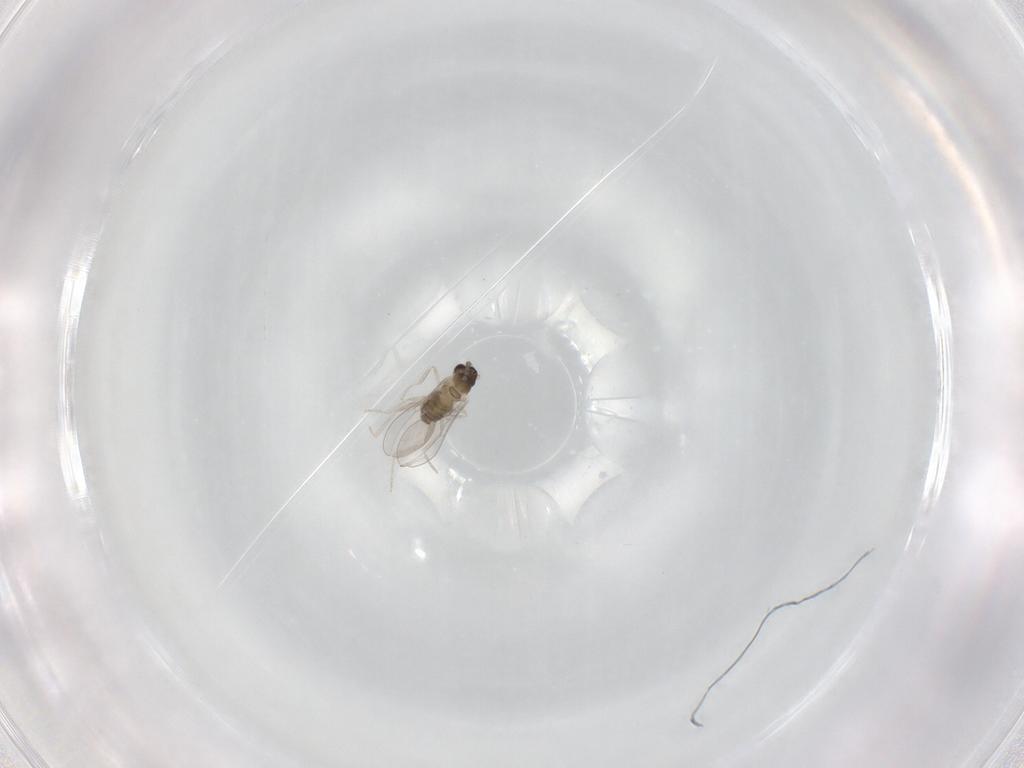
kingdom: Animalia
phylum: Arthropoda
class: Insecta
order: Diptera
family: Cecidomyiidae
